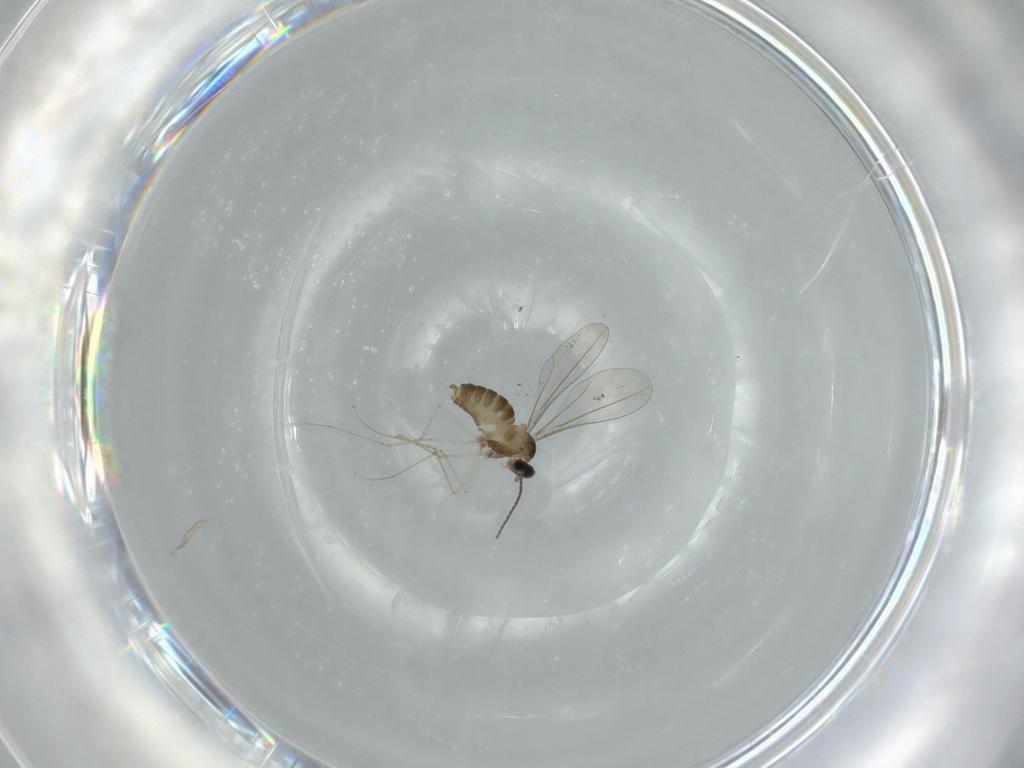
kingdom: Animalia
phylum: Arthropoda
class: Insecta
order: Diptera
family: Cecidomyiidae
